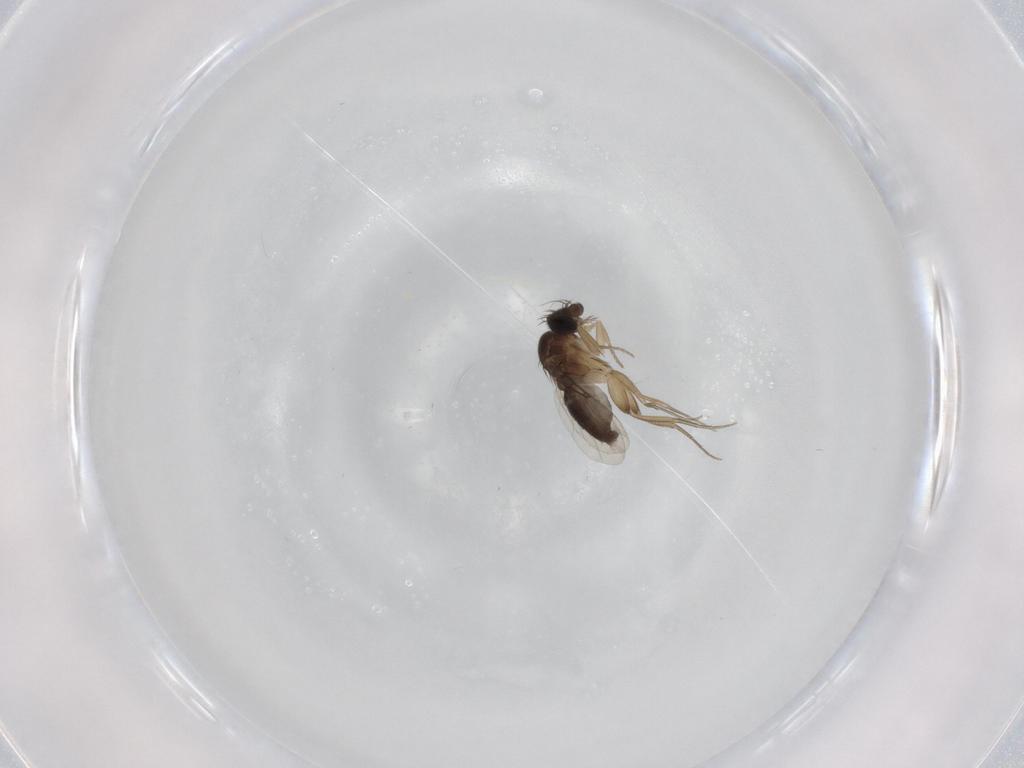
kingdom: Animalia
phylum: Arthropoda
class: Insecta
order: Diptera
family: Phoridae
